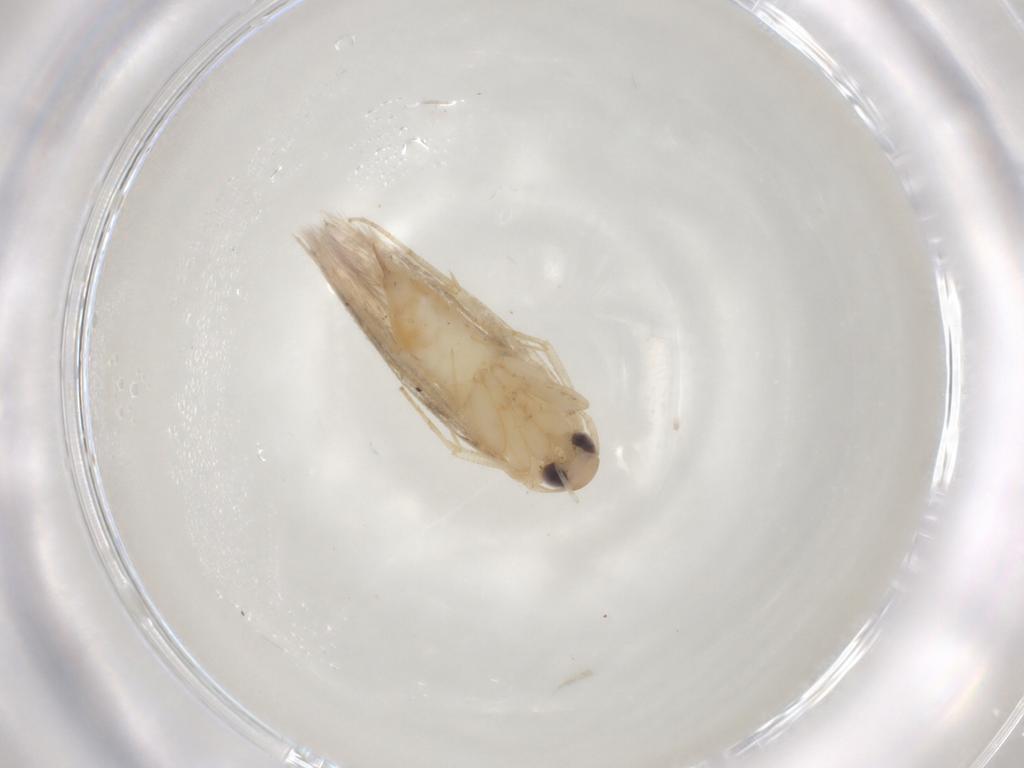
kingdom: Animalia
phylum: Arthropoda
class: Insecta
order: Lepidoptera
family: Cosmopterigidae
